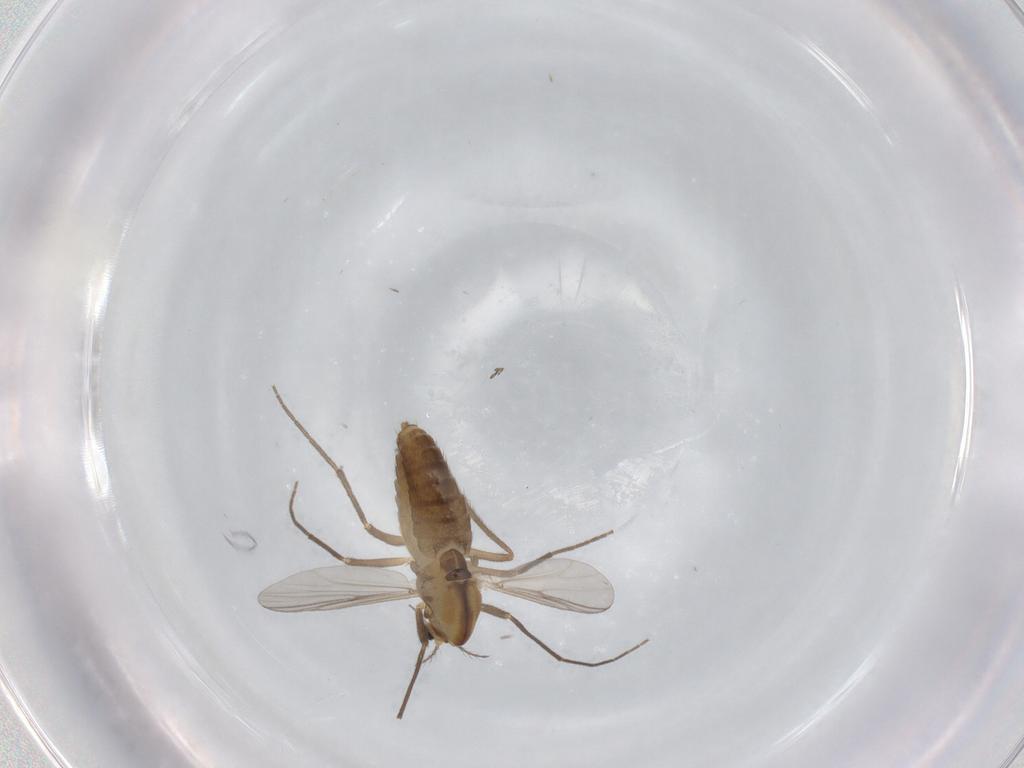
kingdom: Animalia
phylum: Arthropoda
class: Insecta
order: Diptera
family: Chironomidae
